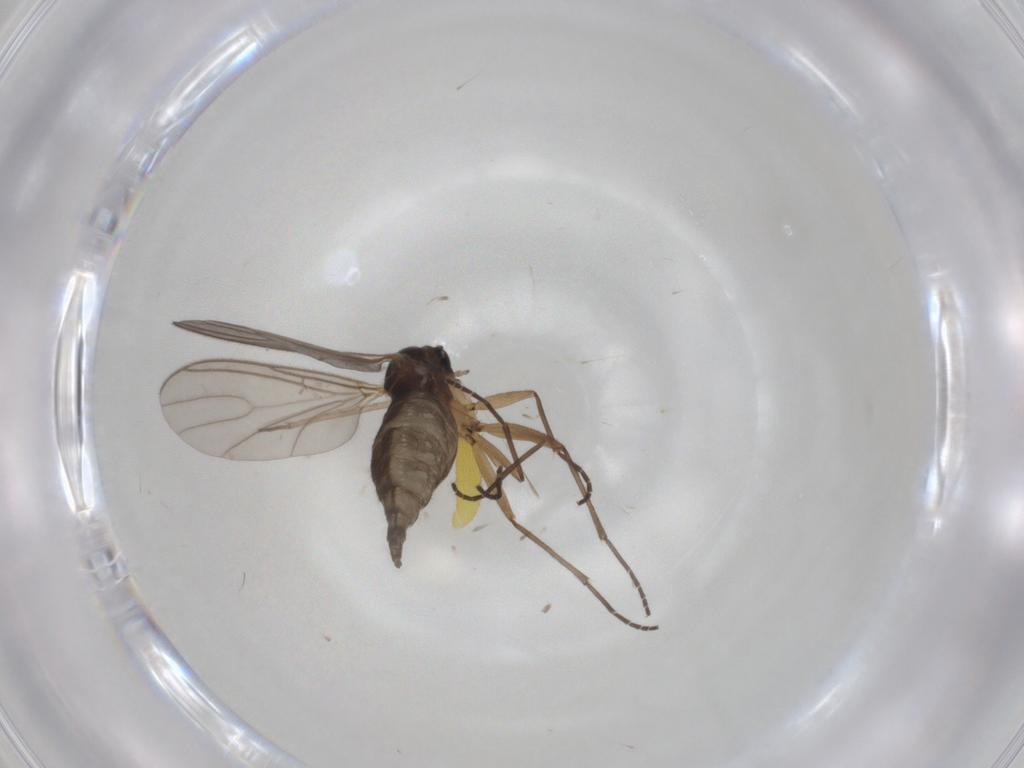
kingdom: Animalia
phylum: Arthropoda
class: Insecta
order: Diptera
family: Sciaridae
